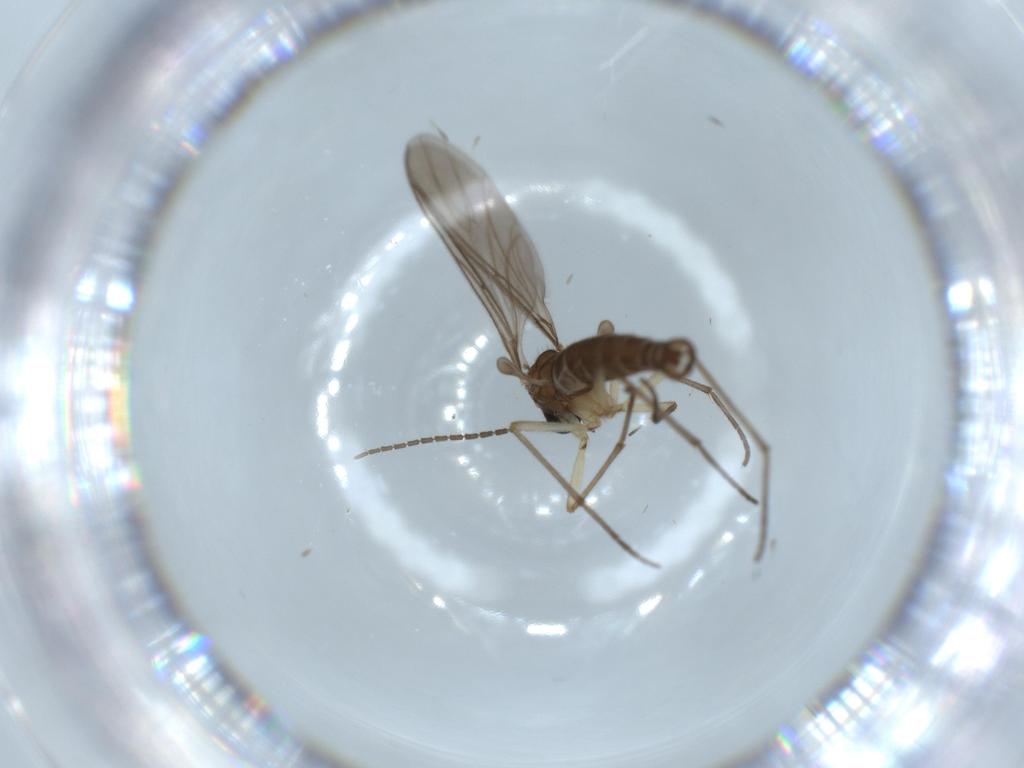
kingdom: Animalia
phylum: Arthropoda
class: Insecta
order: Diptera
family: Sciaridae
